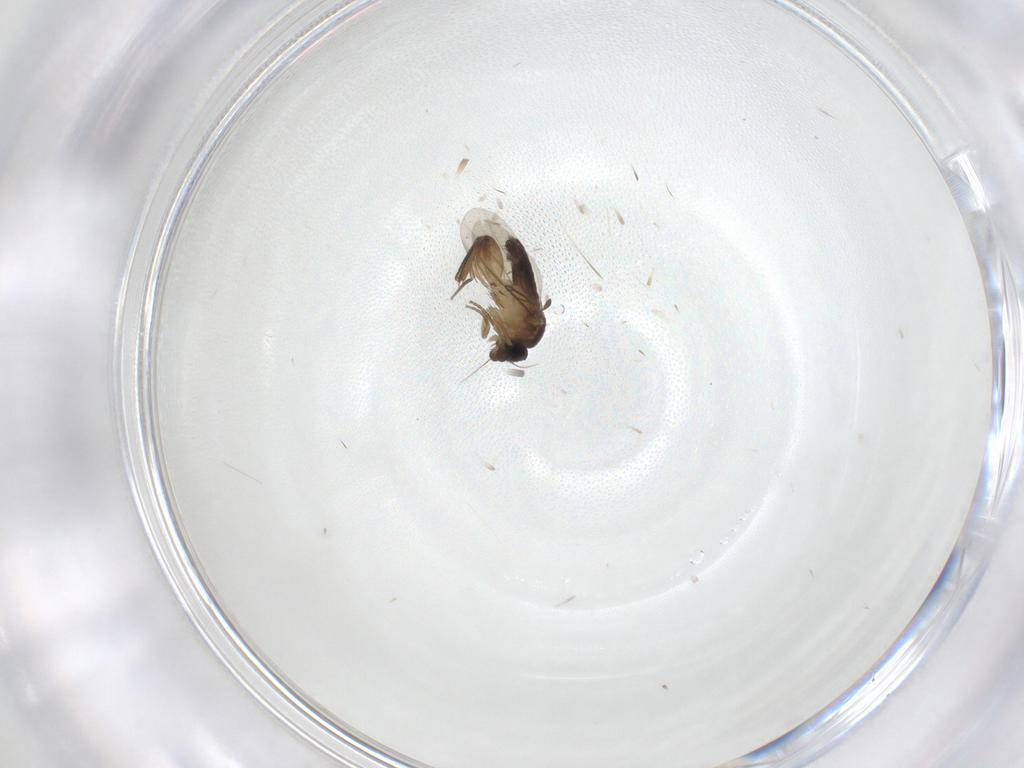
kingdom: Animalia
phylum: Arthropoda
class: Insecta
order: Diptera
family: Phoridae
